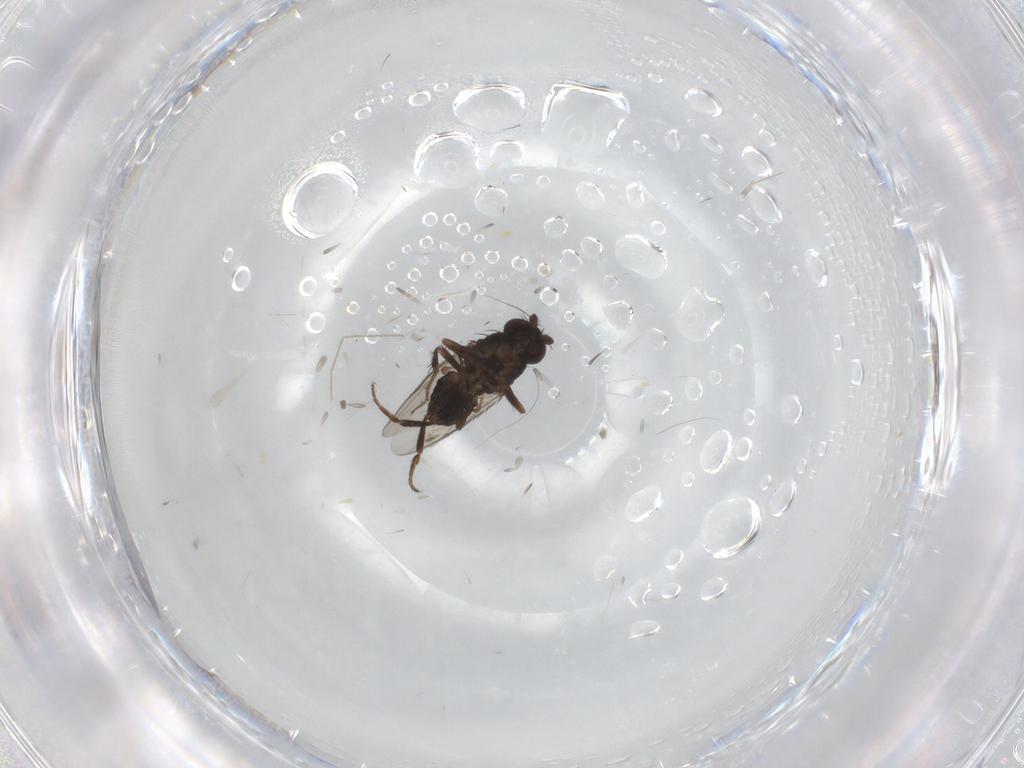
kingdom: Animalia
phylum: Arthropoda
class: Insecta
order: Diptera
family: Sphaeroceridae
